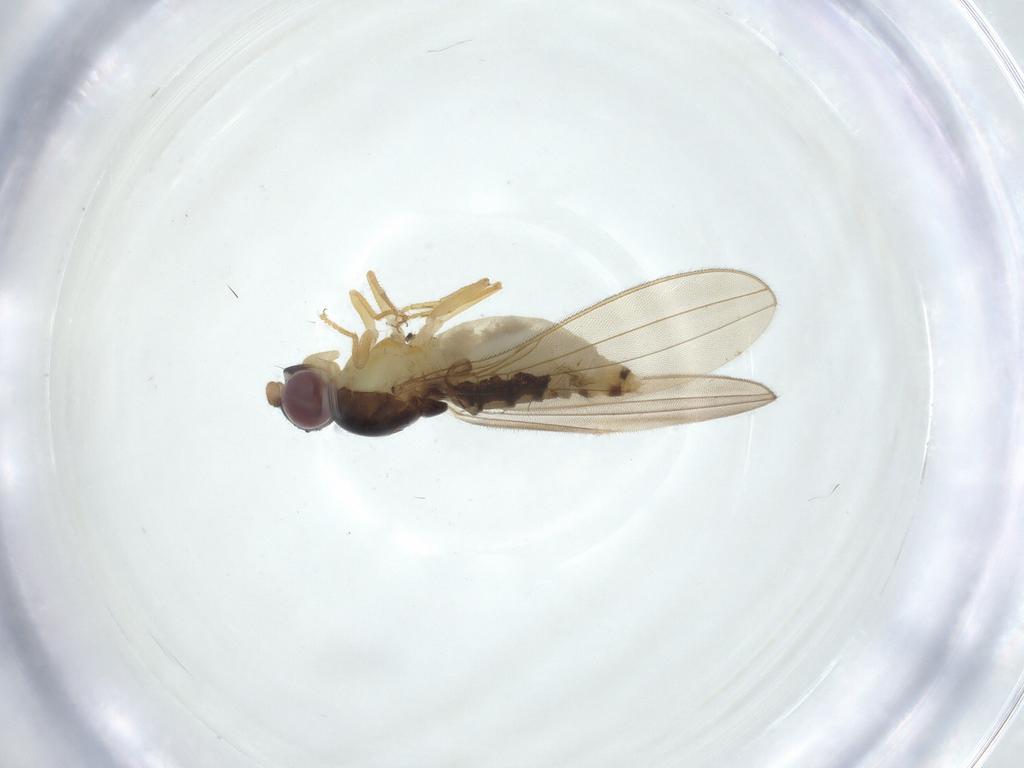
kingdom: Animalia
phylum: Arthropoda
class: Insecta
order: Diptera
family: Asteiidae
